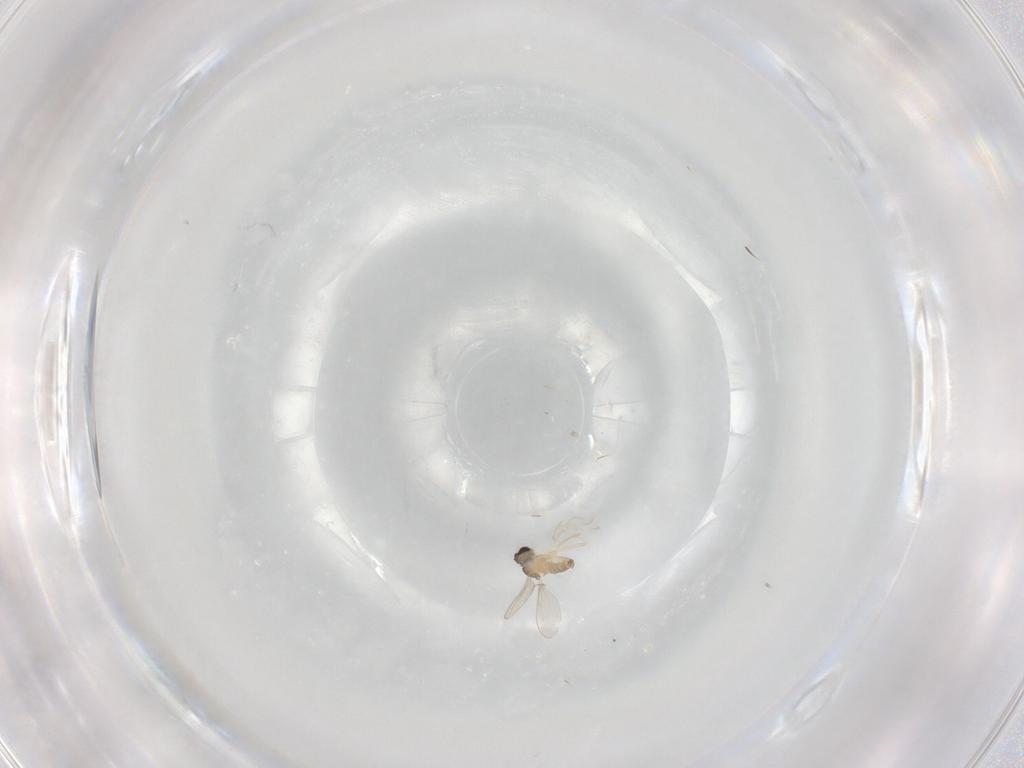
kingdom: Animalia
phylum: Arthropoda
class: Insecta
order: Diptera
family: Cecidomyiidae
